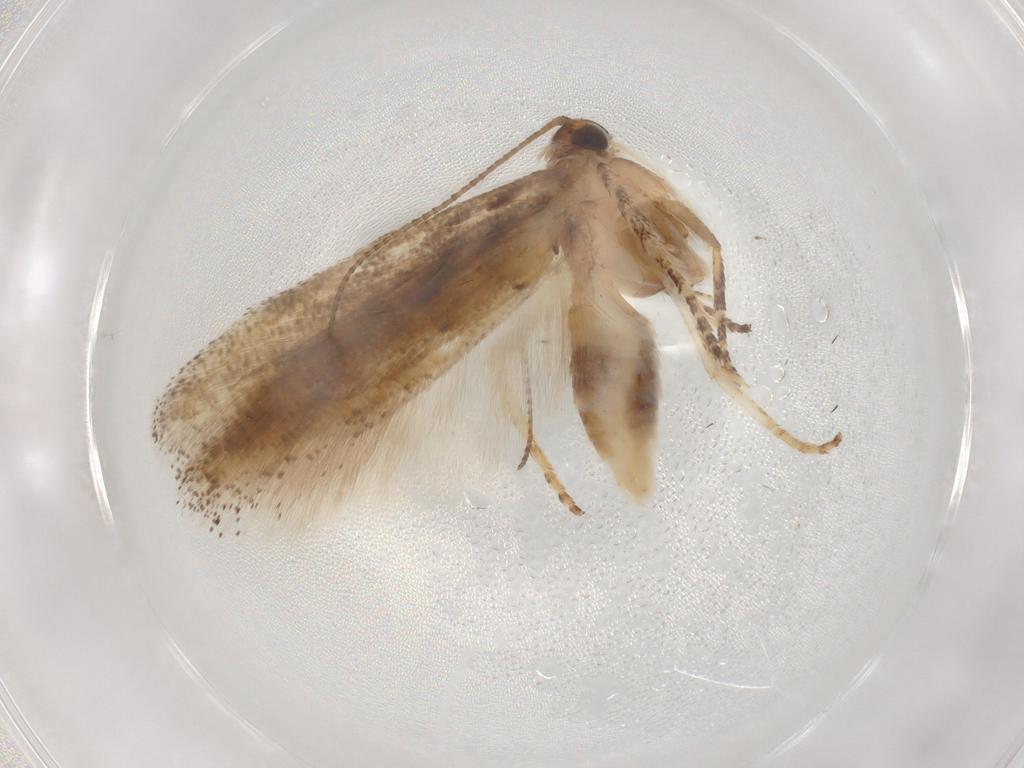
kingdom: Animalia
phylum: Arthropoda
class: Insecta
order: Lepidoptera
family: Gelechiidae
